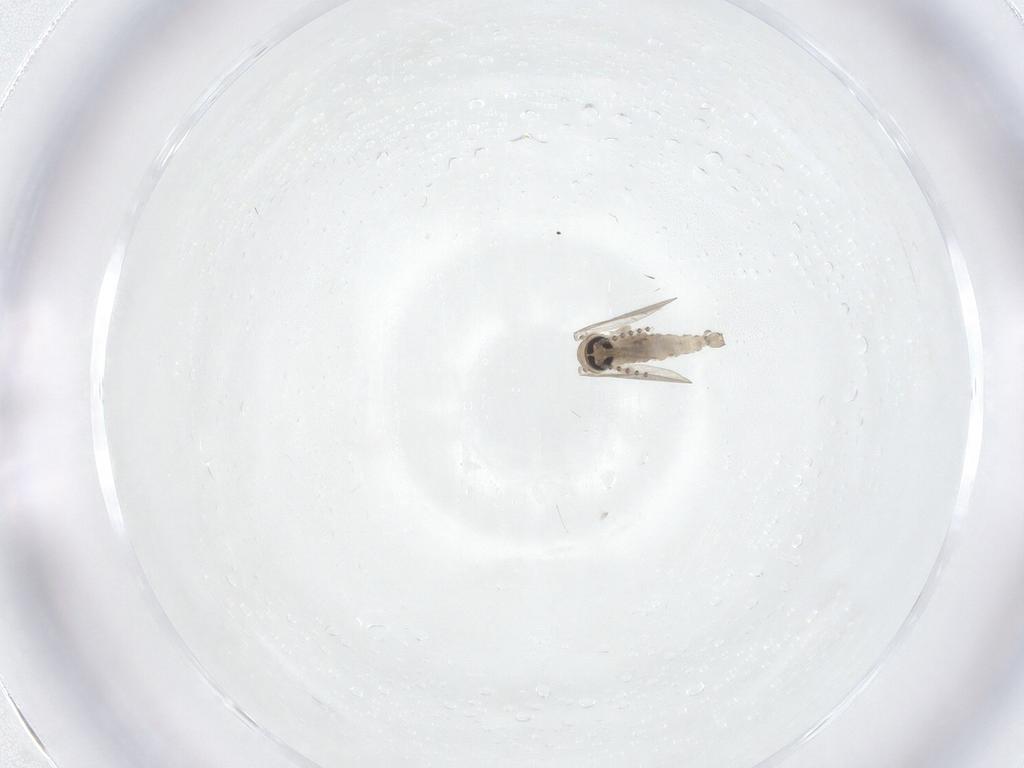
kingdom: Animalia
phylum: Arthropoda
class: Insecta
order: Diptera
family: Psychodidae
